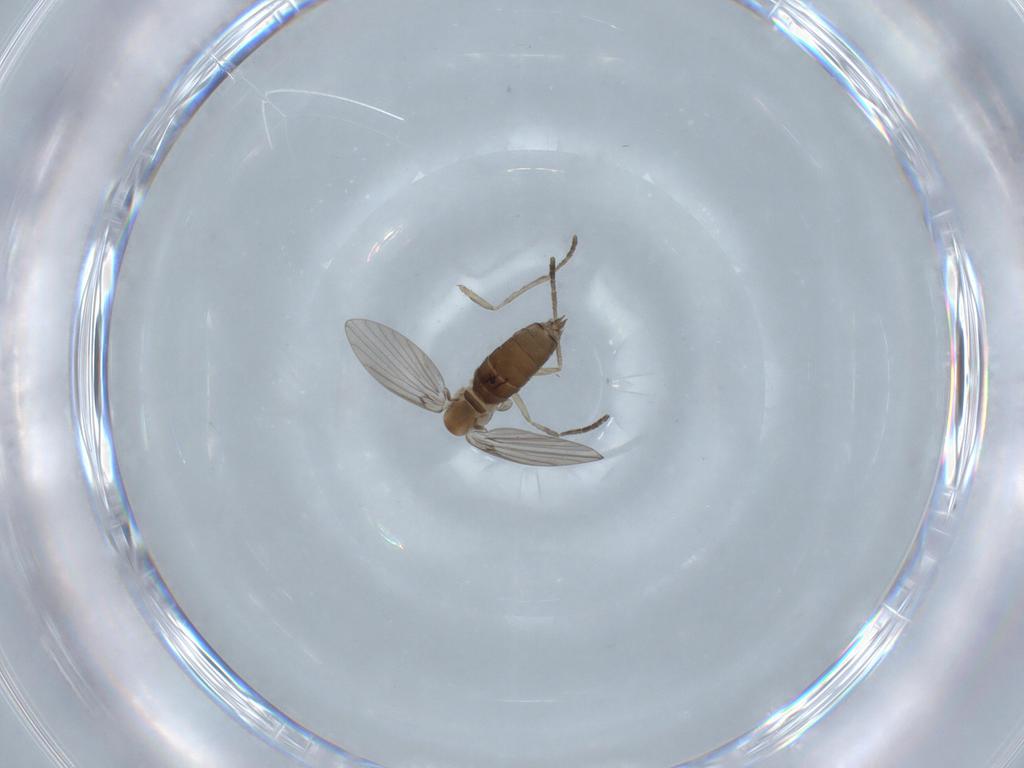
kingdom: Animalia
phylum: Arthropoda
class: Insecta
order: Diptera
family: Psychodidae
